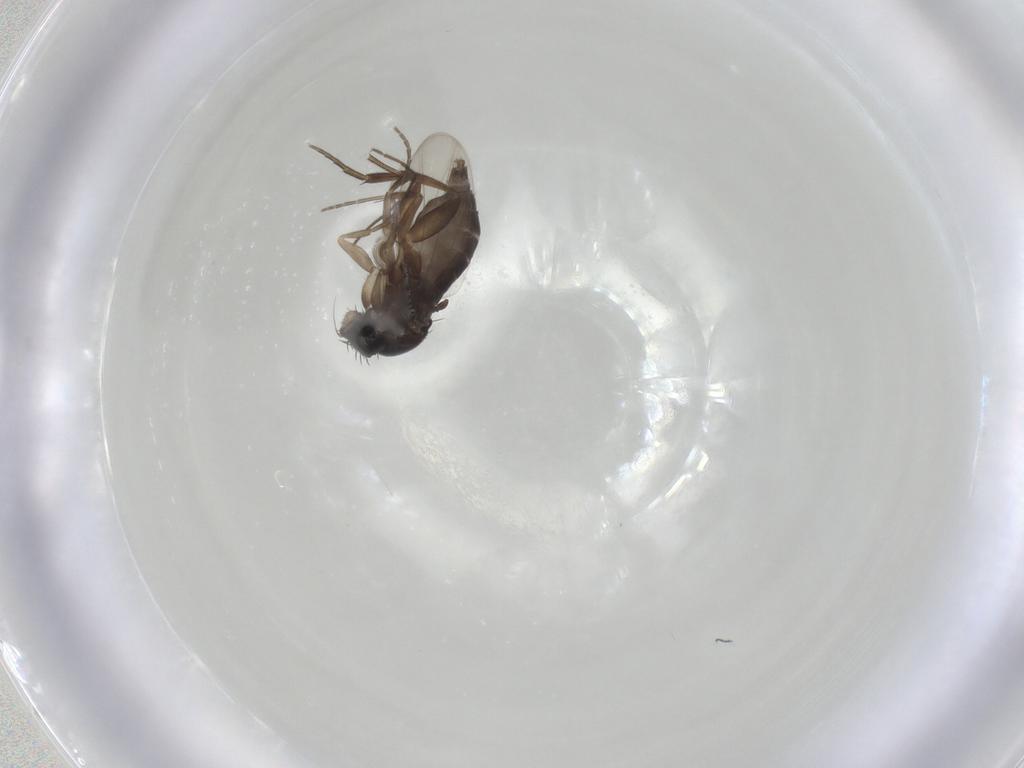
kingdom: Animalia
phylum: Arthropoda
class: Insecta
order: Diptera
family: Phoridae
